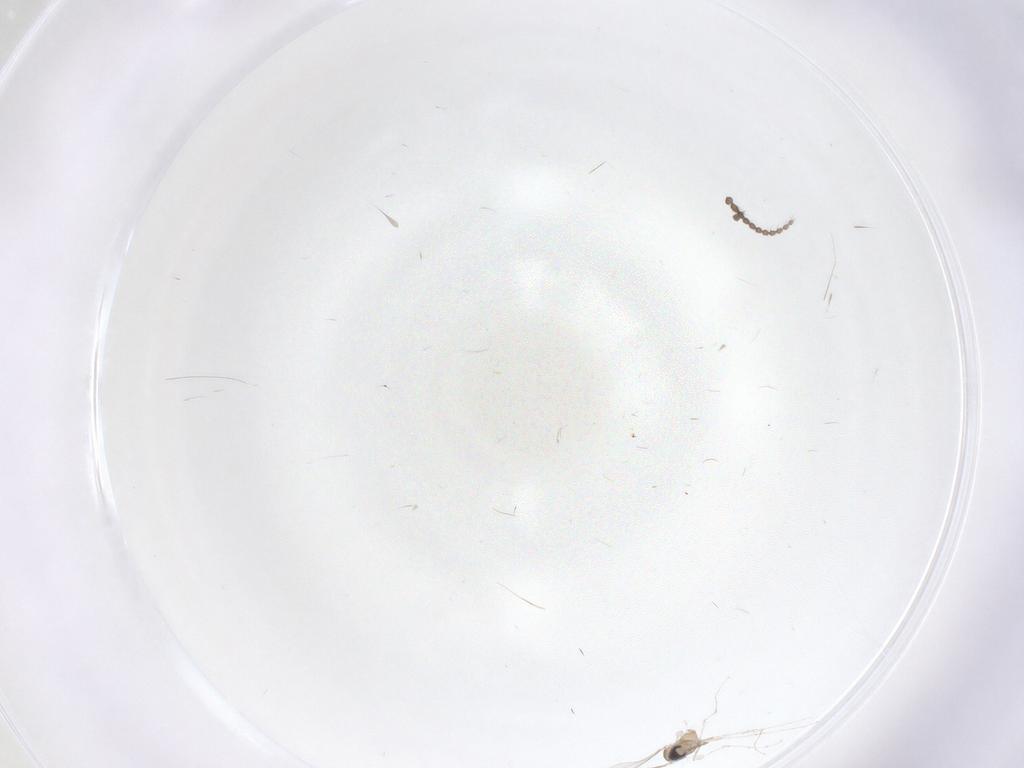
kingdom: Animalia
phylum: Arthropoda
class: Insecta
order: Diptera
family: Cecidomyiidae
